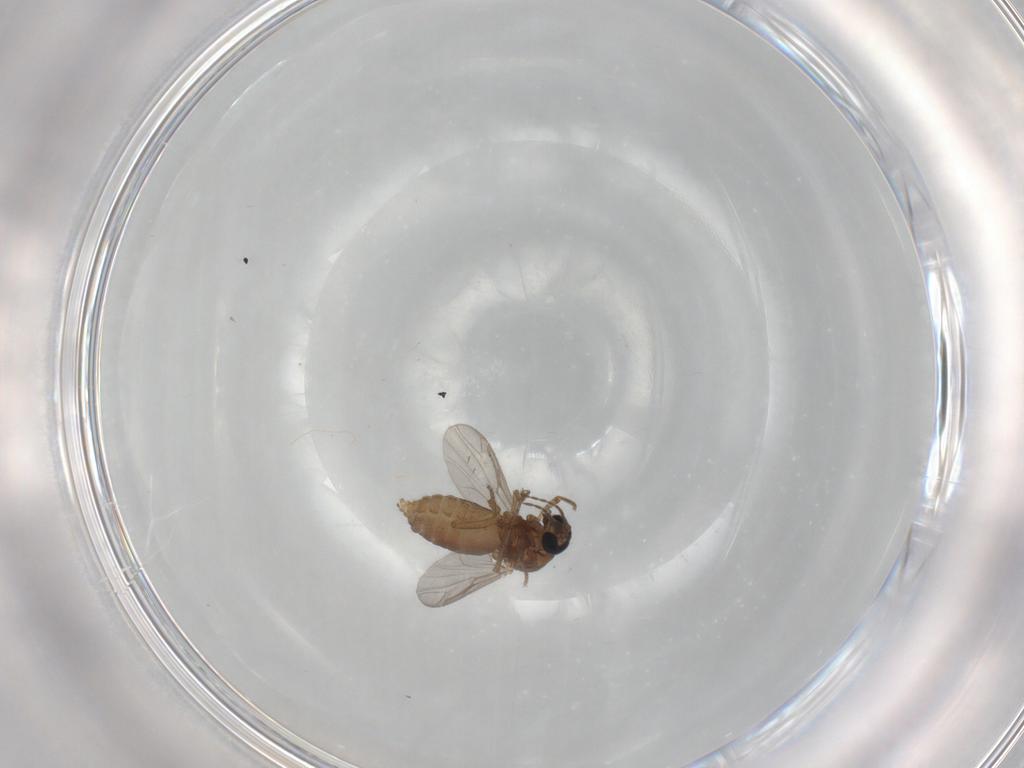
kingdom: Animalia
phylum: Arthropoda
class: Insecta
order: Diptera
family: Ceratopogonidae
